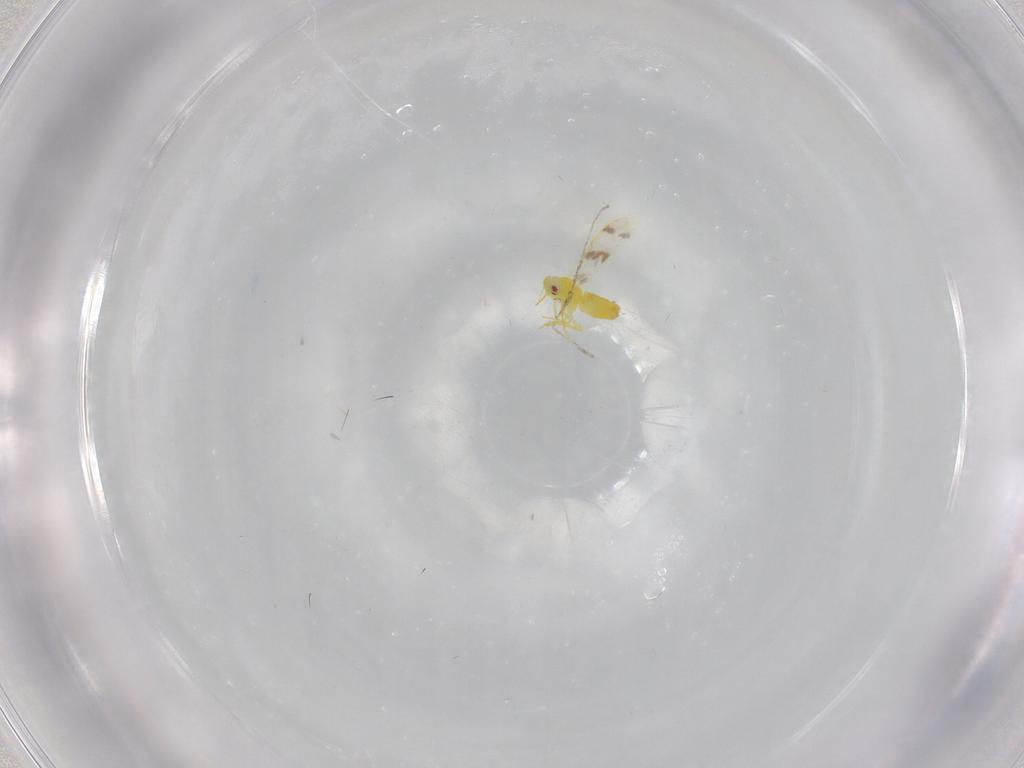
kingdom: Animalia
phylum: Arthropoda
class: Insecta
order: Hemiptera
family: Aleyrodidae
